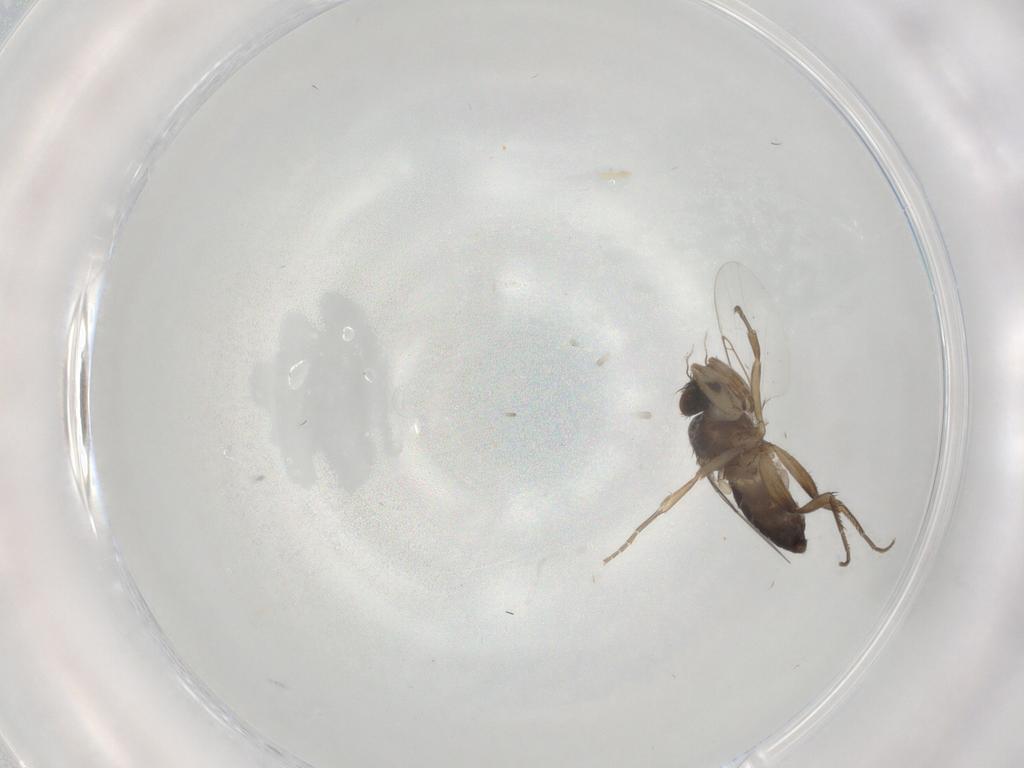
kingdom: Animalia
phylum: Arthropoda
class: Insecta
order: Diptera
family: Phoridae
